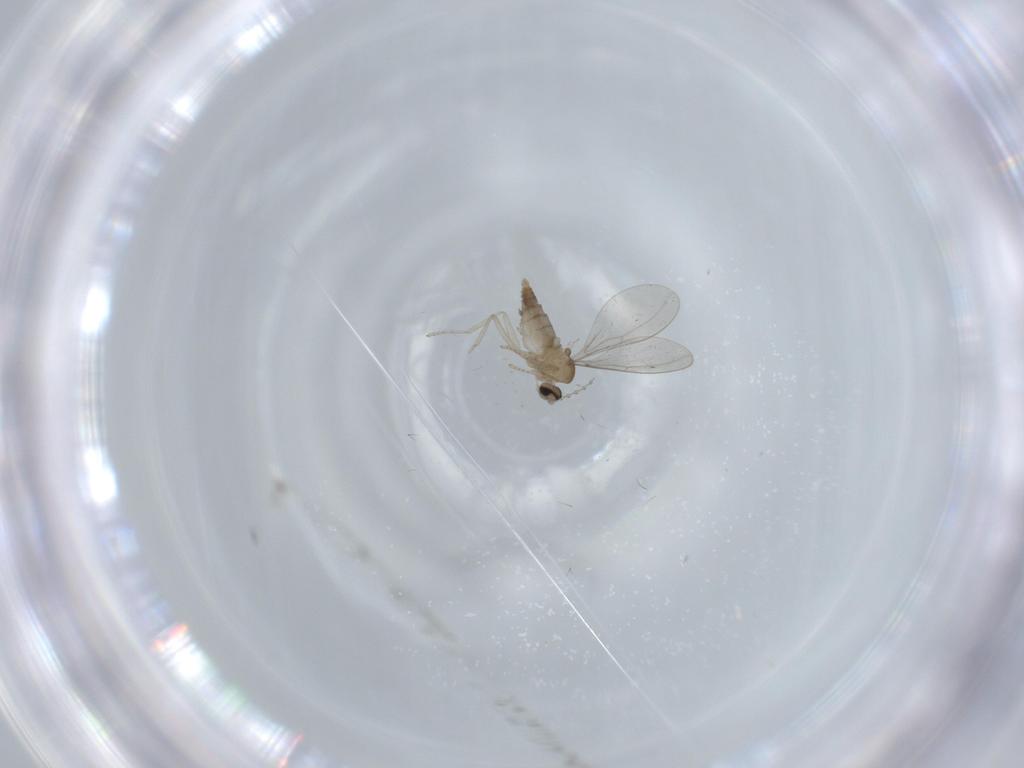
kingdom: Animalia
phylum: Arthropoda
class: Insecta
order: Diptera
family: Cecidomyiidae
